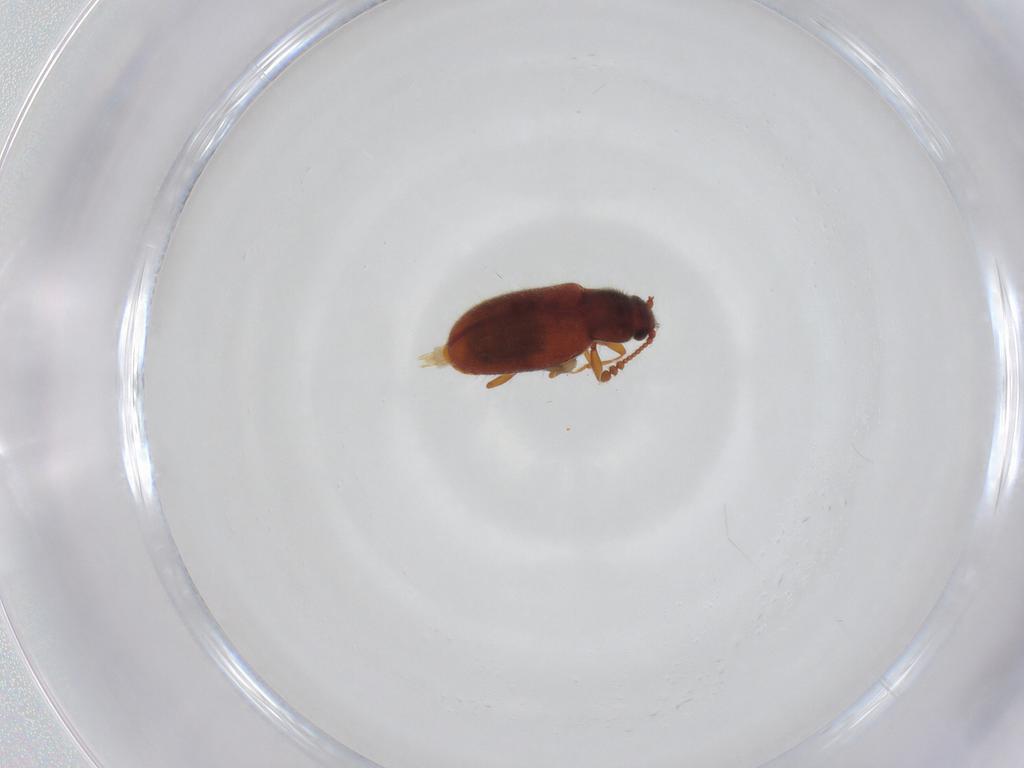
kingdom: Animalia
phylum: Arthropoda
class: Insecta
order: Coleoptera
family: Cryptophagidae
